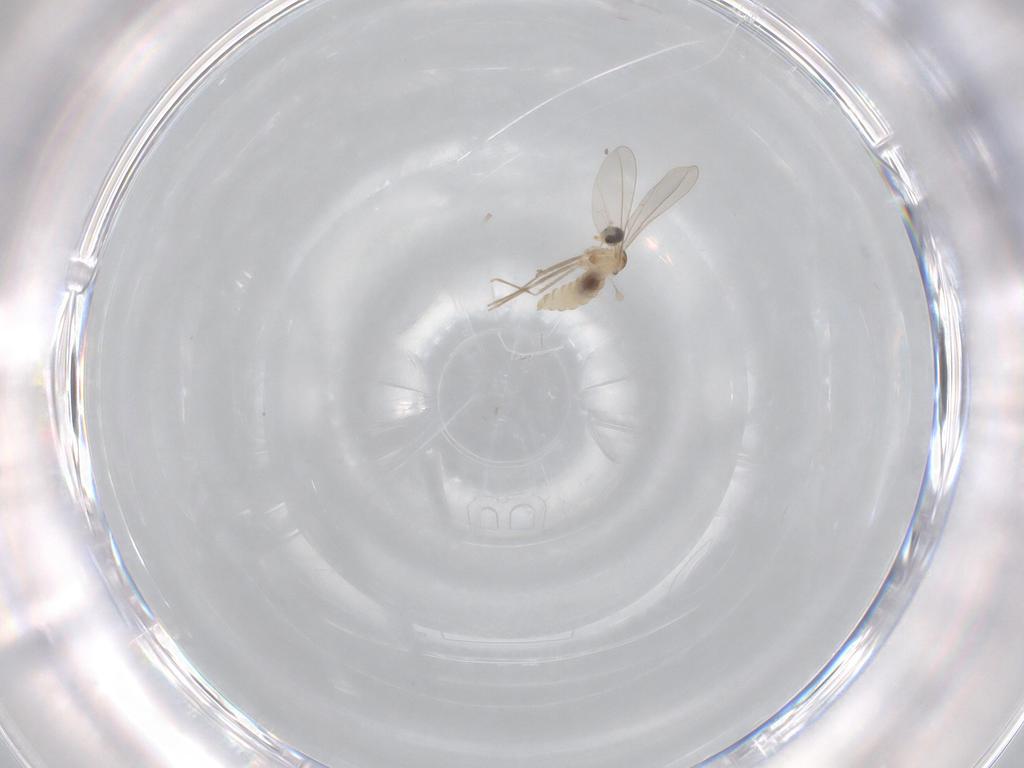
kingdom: Animalia
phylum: Arthropoda
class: Insecta
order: Diptera
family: Cecidomyiidae
